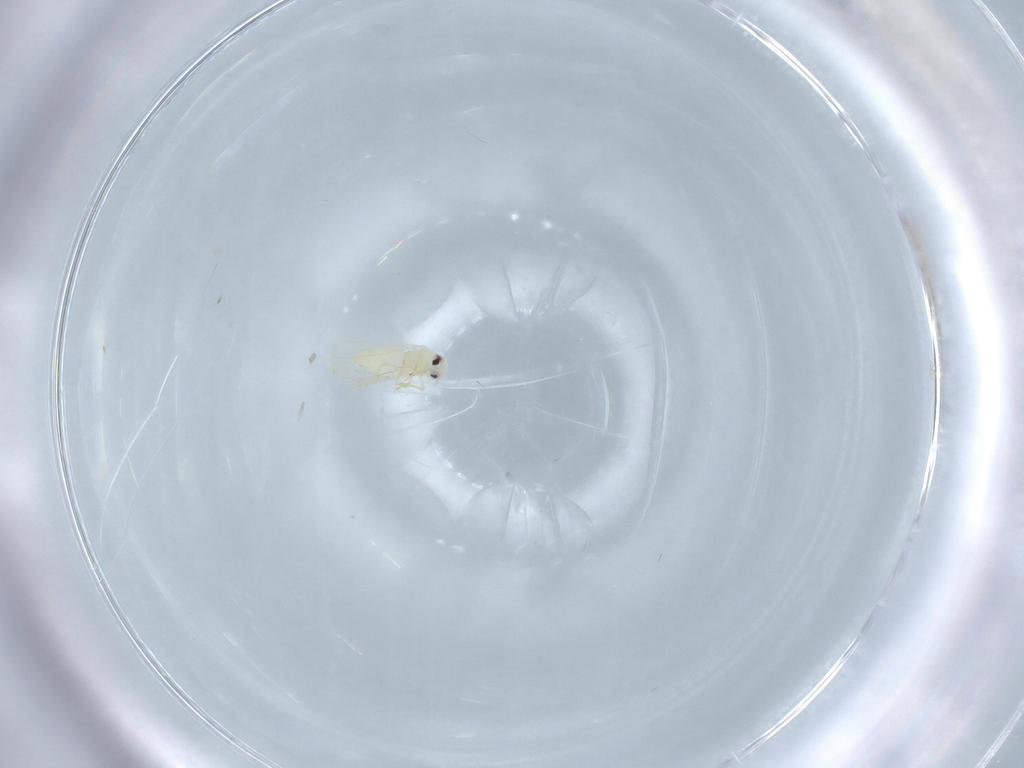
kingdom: Animalia
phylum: Arthropoda
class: Insecta
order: Hemiptera
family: Aleyrodidae
